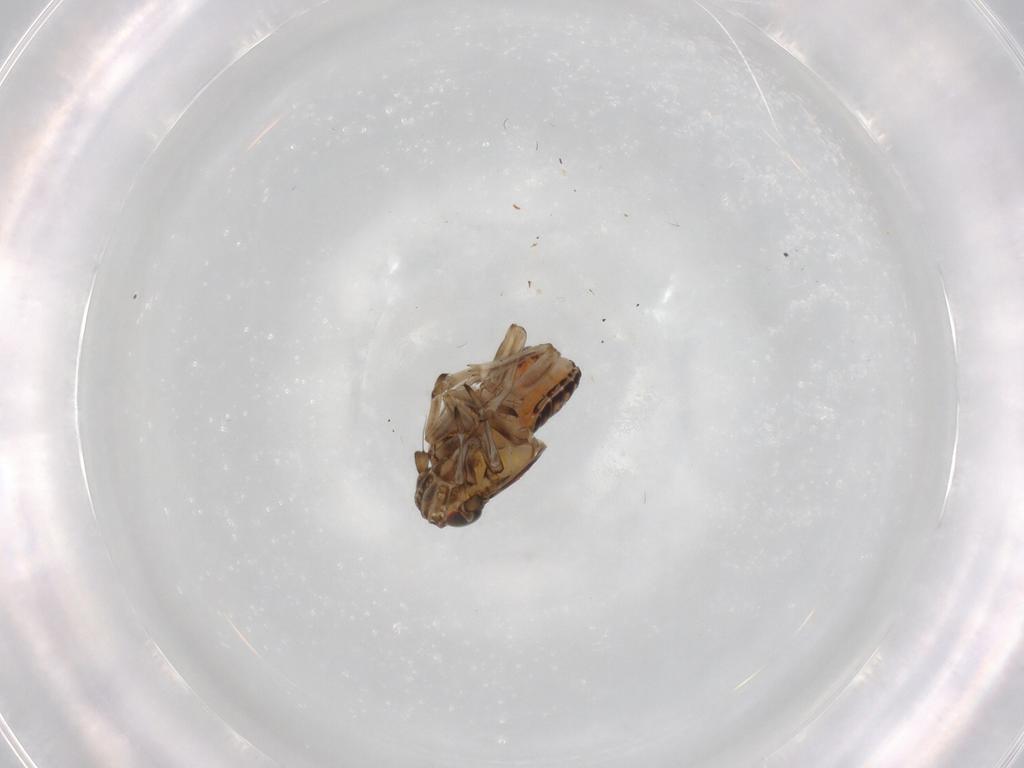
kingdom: Animalia
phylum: Arthropoda
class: Insecta
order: Hemiptera
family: Delphacidae
